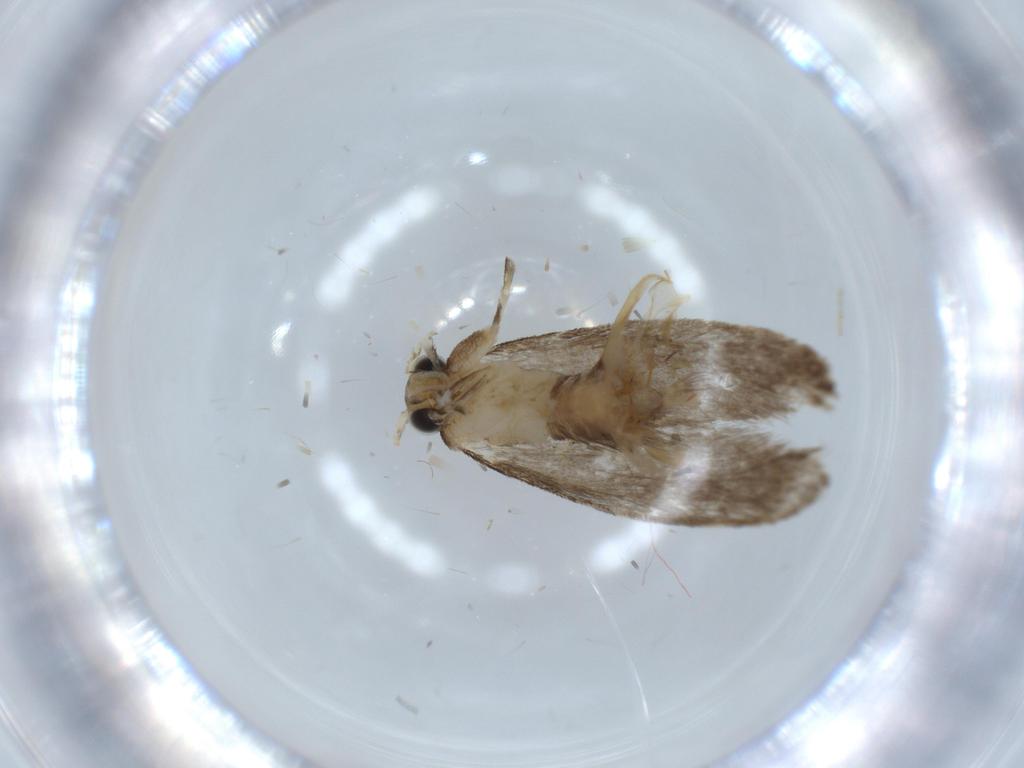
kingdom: Animalia
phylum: Arthropoda
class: Insecta
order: Lepidoptera
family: Tineidae
